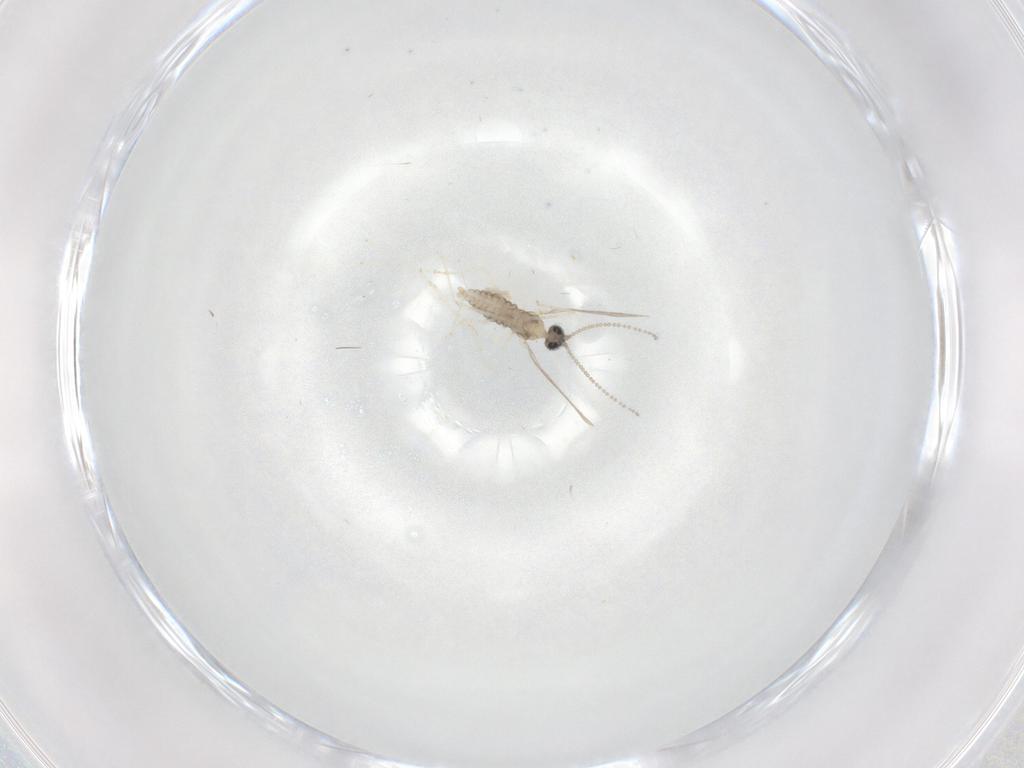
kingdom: Animalia
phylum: Arthropoda
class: Insecta
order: Diptera
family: Cecidomyiidae
